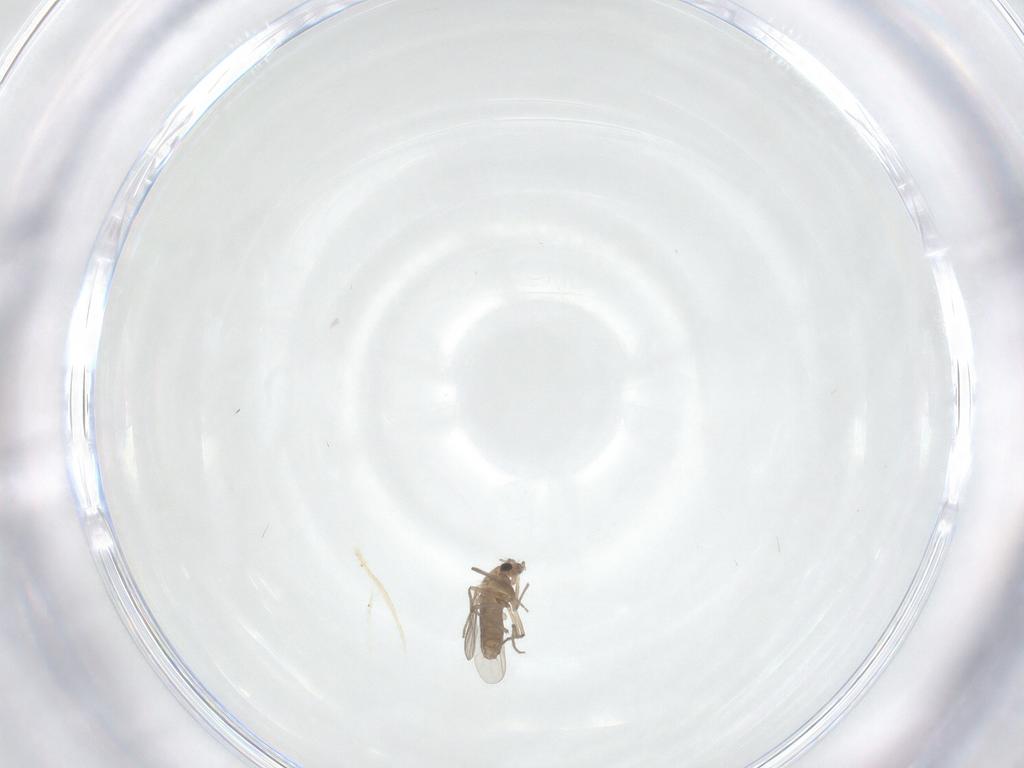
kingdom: Animalia
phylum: Arthropoda
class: Insecta
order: Diptera
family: Chironomidae
